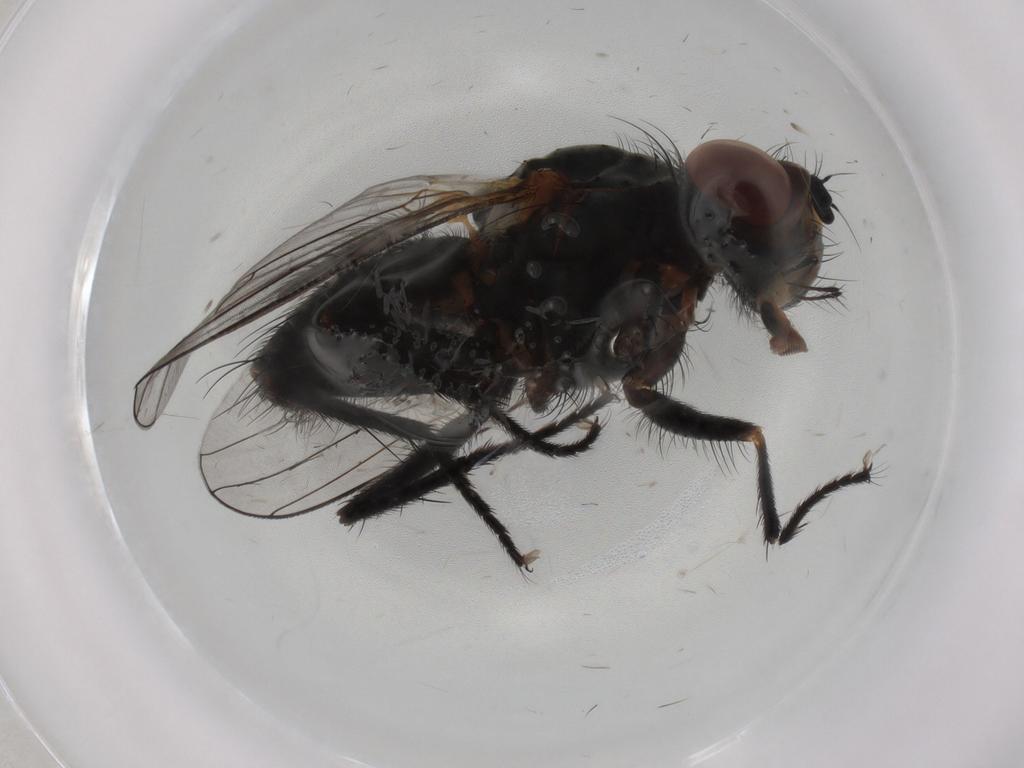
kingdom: Animalia
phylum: Arthropoda
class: Insecta
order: Diptera
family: Anthomyiidae
